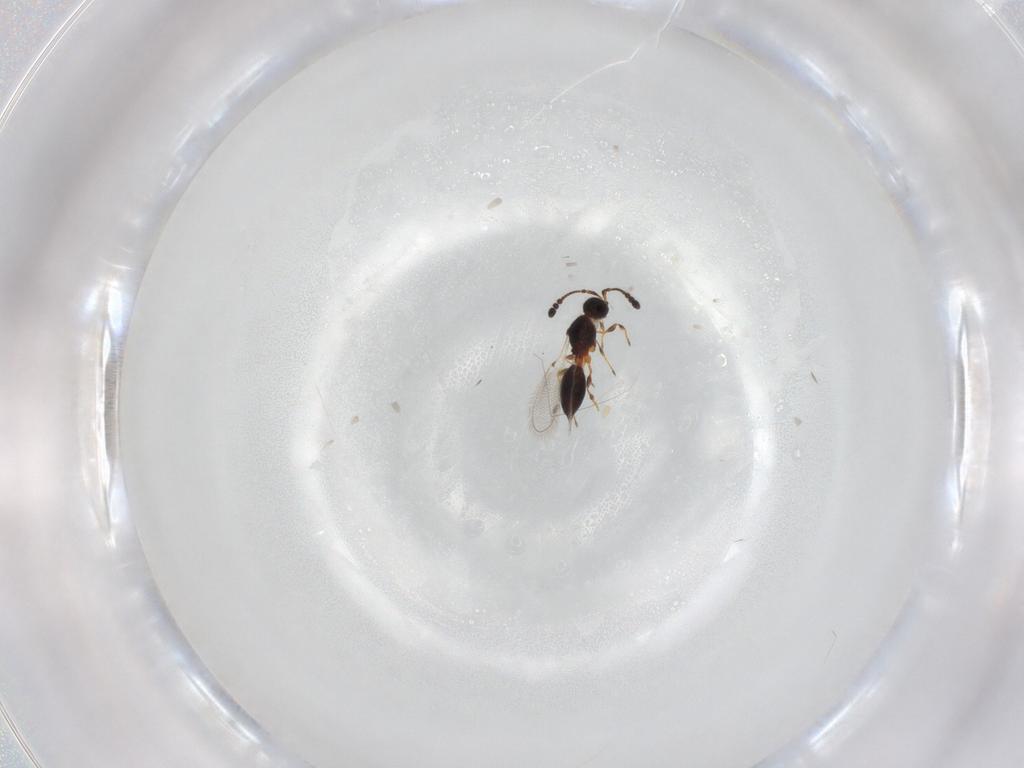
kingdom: Animalia
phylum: Arthropoda
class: Insecta
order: Hymenoptera
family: Diapriidae
